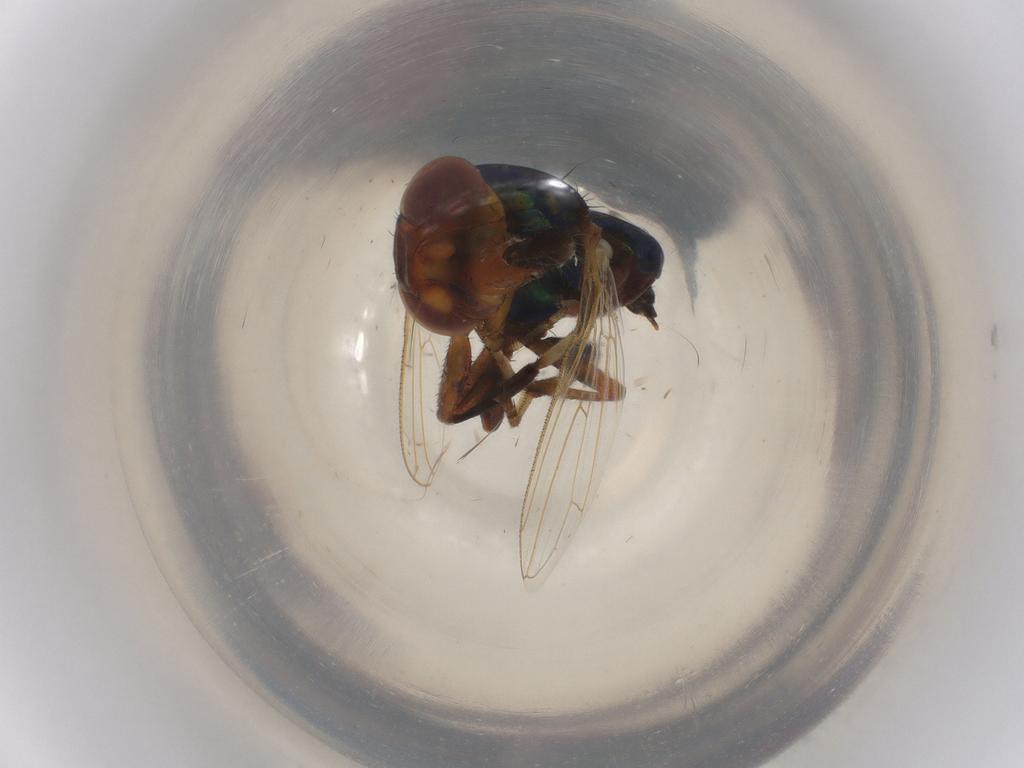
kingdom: Animalia
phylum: Arthropoda
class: Insecta
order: Diptera
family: Ulidiidae
